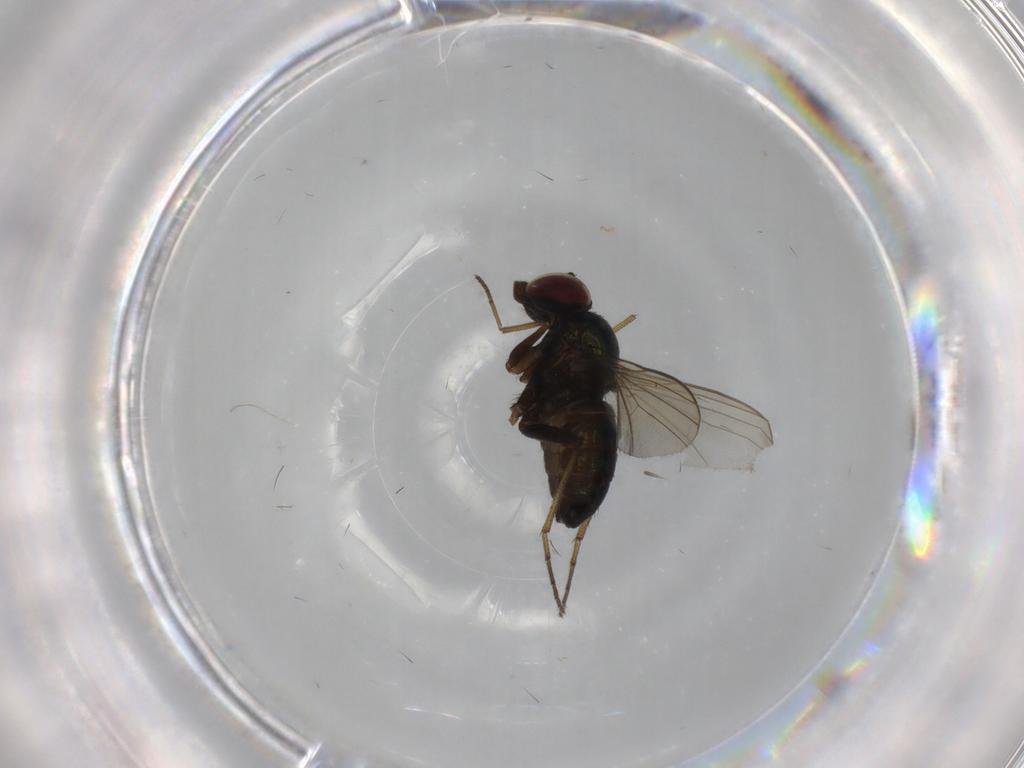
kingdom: Animalia
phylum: Arthropoda
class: Insecta
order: Diptera
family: Dolichopodidae
